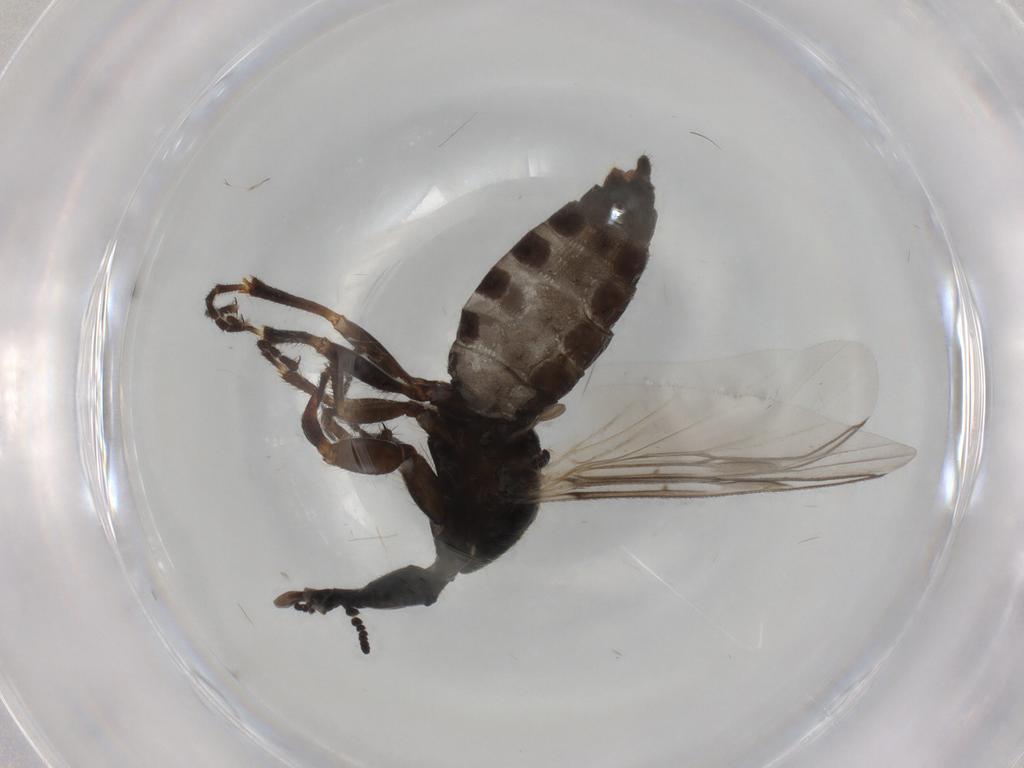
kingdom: Animalia
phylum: Arthropoda
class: Insecta
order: Diptera
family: Bibionidae
